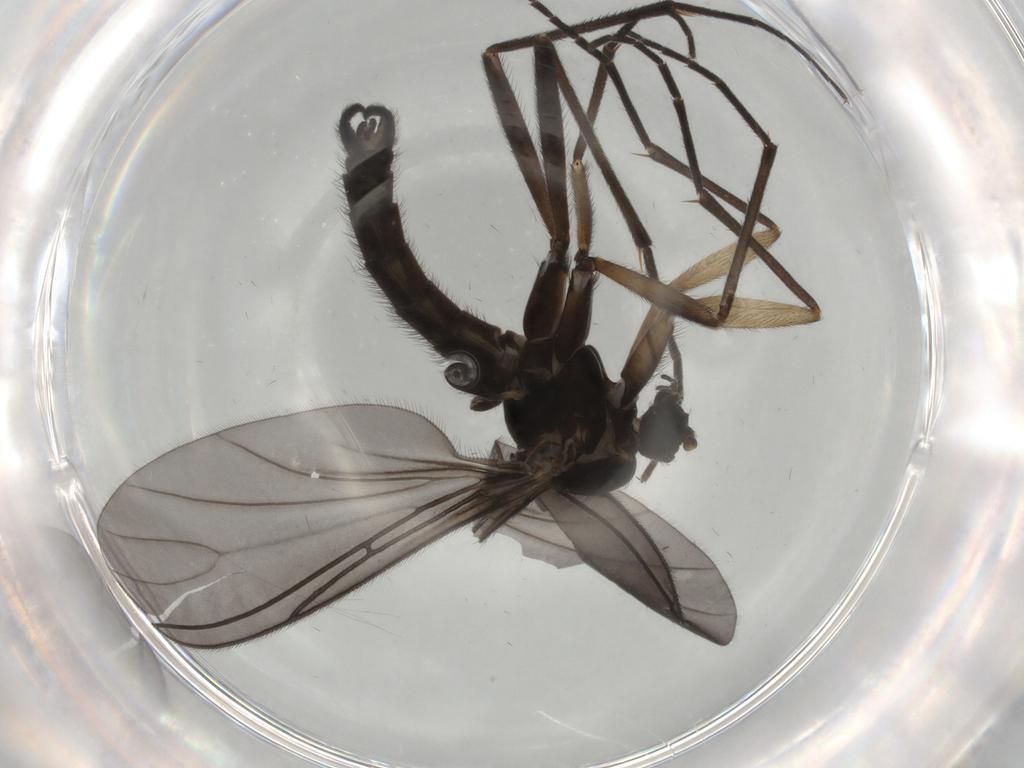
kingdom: Animalia
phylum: Arthropoda
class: Insecta
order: Diptera
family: Sciaridae
